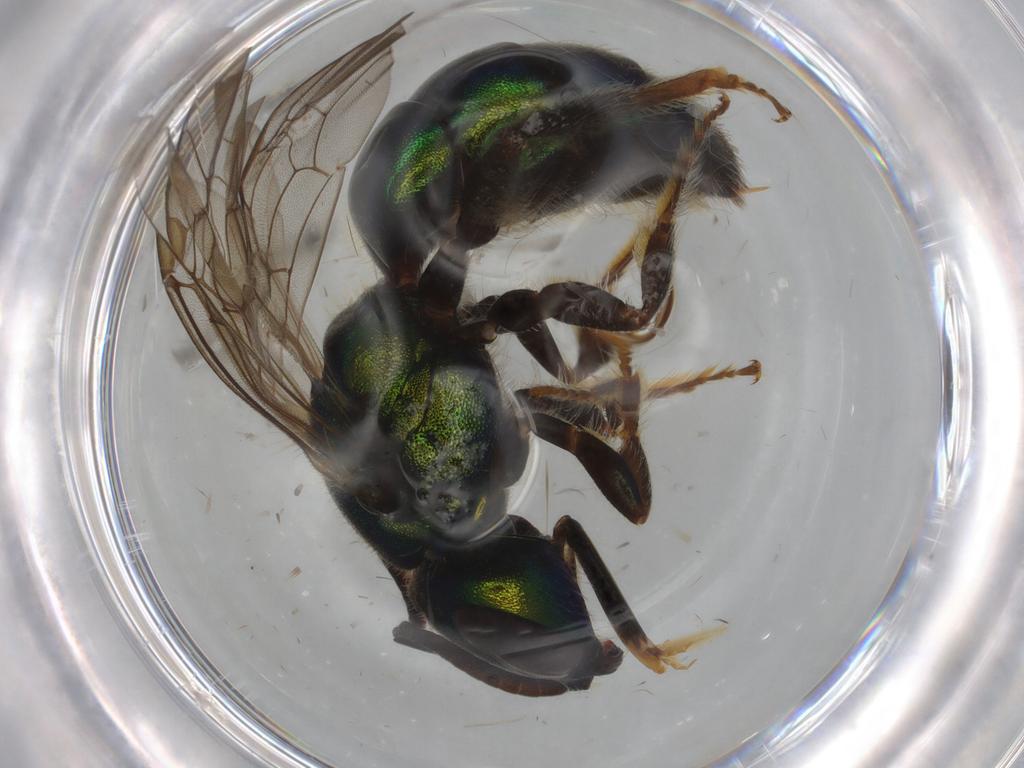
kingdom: Animalia
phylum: Arthropoda
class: Insecta
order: Hymenoptera
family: Formicidae
